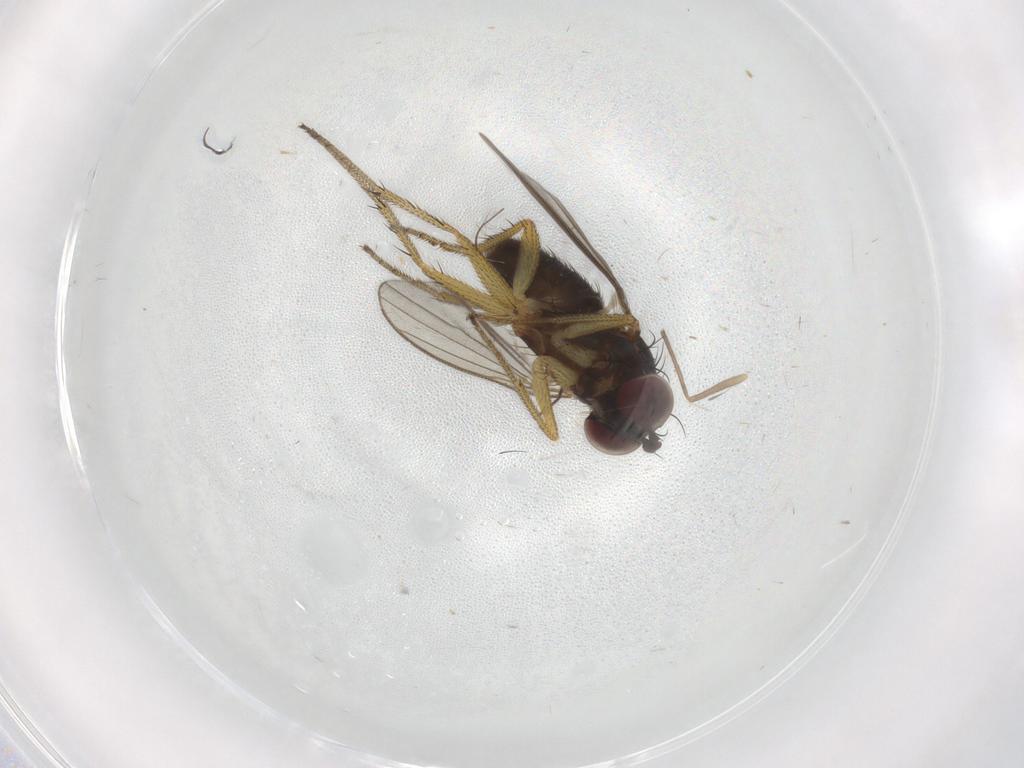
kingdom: Animalia
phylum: Arthropoda
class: Insecta
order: Diptera
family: Dolichopodidae
